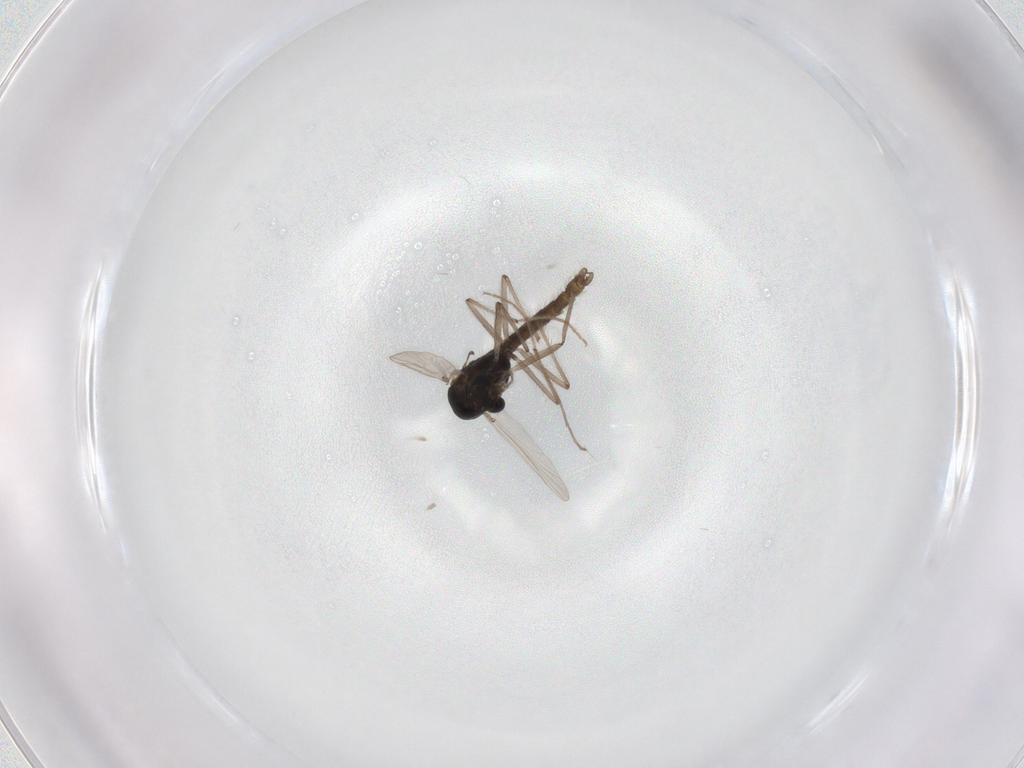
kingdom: Animalia
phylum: Arthropoda
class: Insecta
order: Diptera
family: Chironomidae
